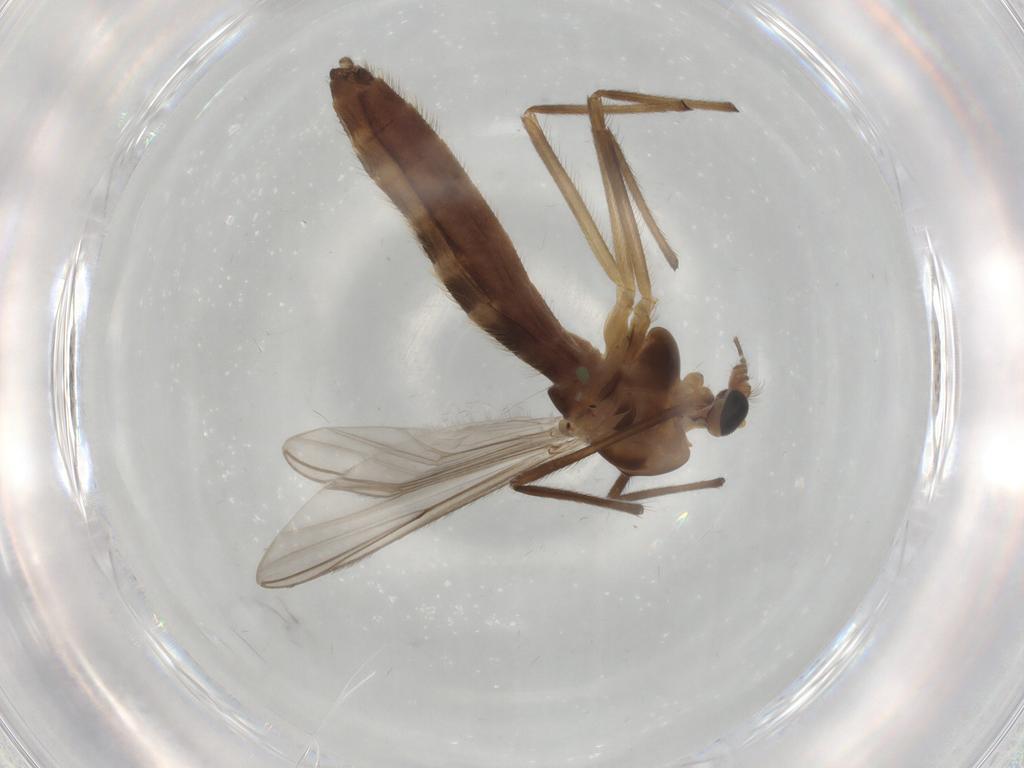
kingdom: Animalia
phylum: Arthropoda
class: Insecta
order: Diptera
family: Chironomidae
